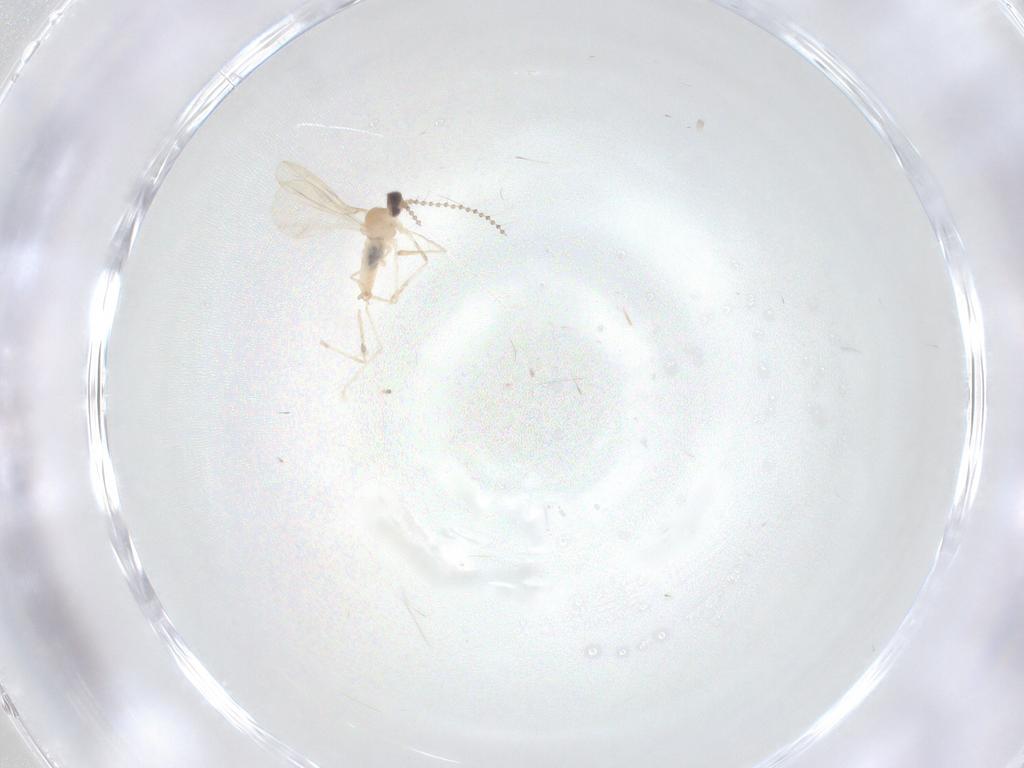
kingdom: Animalia
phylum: Arthropoda
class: Insecta
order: Diptera
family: Cecidomyiidae
